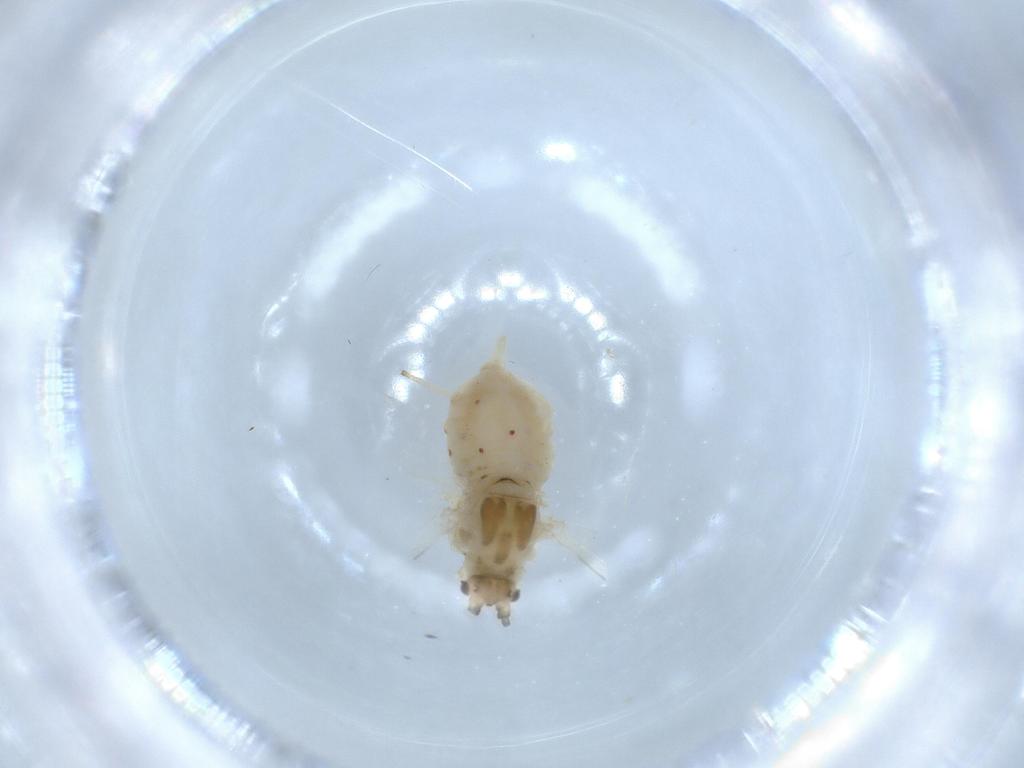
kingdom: Animalia
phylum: Arthropoda
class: Insecta
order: Hemiptera
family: Aphididae
